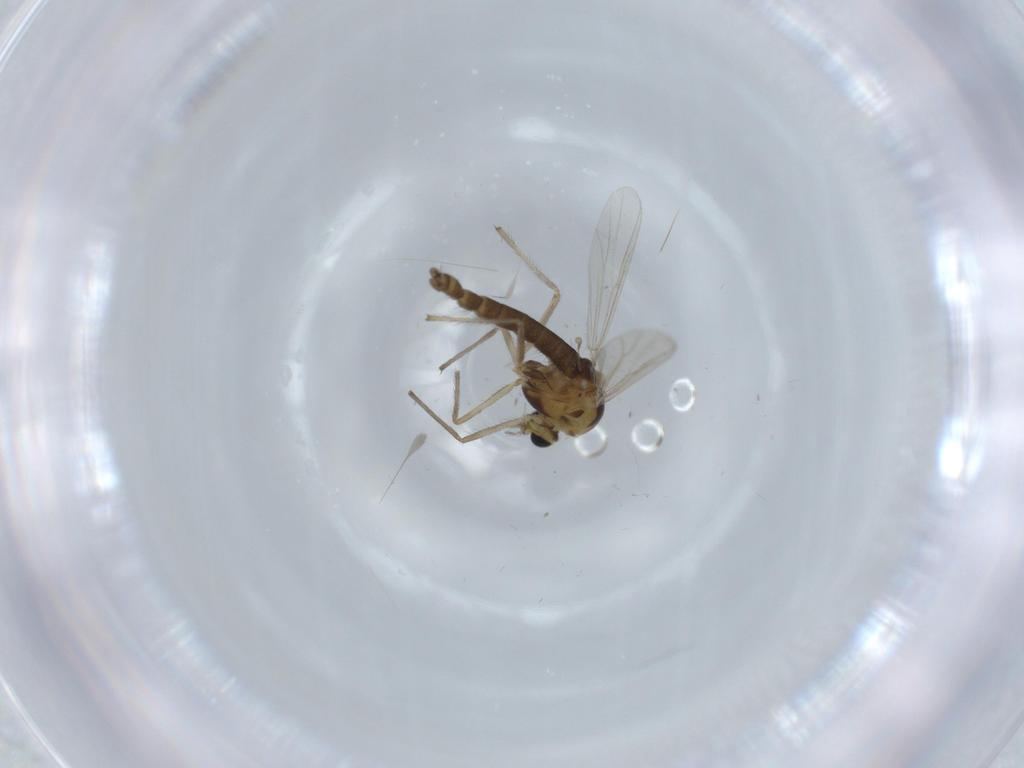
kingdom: Animalia
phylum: Arthropoda
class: Insecta
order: Diptera
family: Chironomidae
